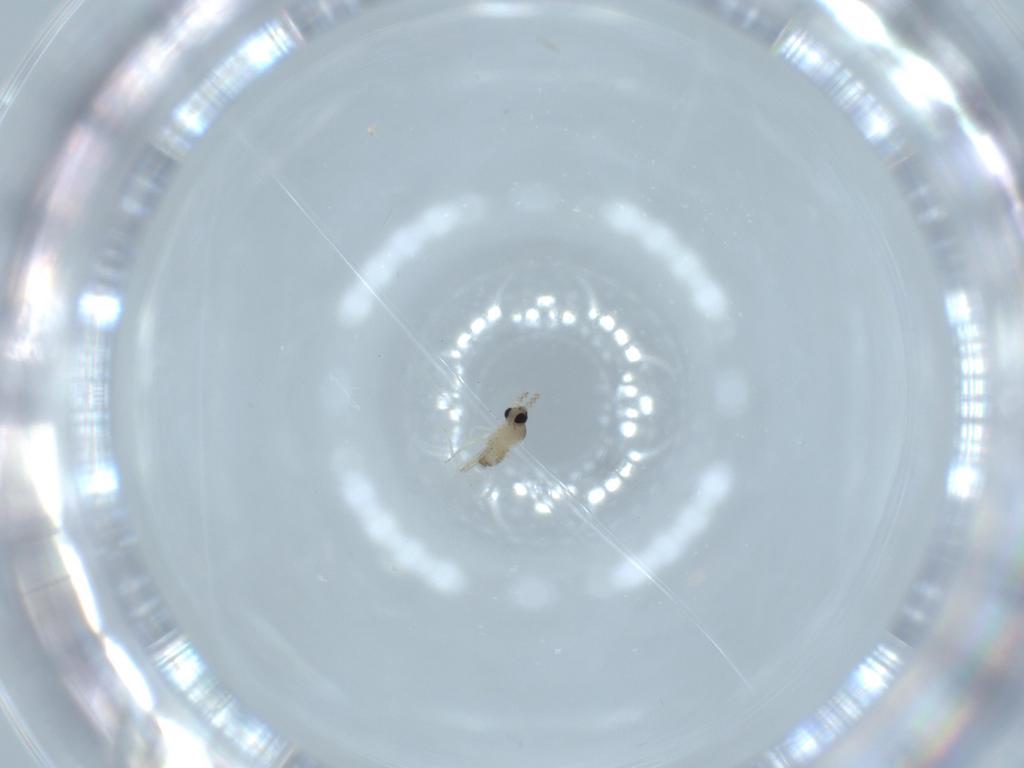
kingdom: Animalia
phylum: Arthropoda
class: Insecta
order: Diptera
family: Cecidomyiidae
